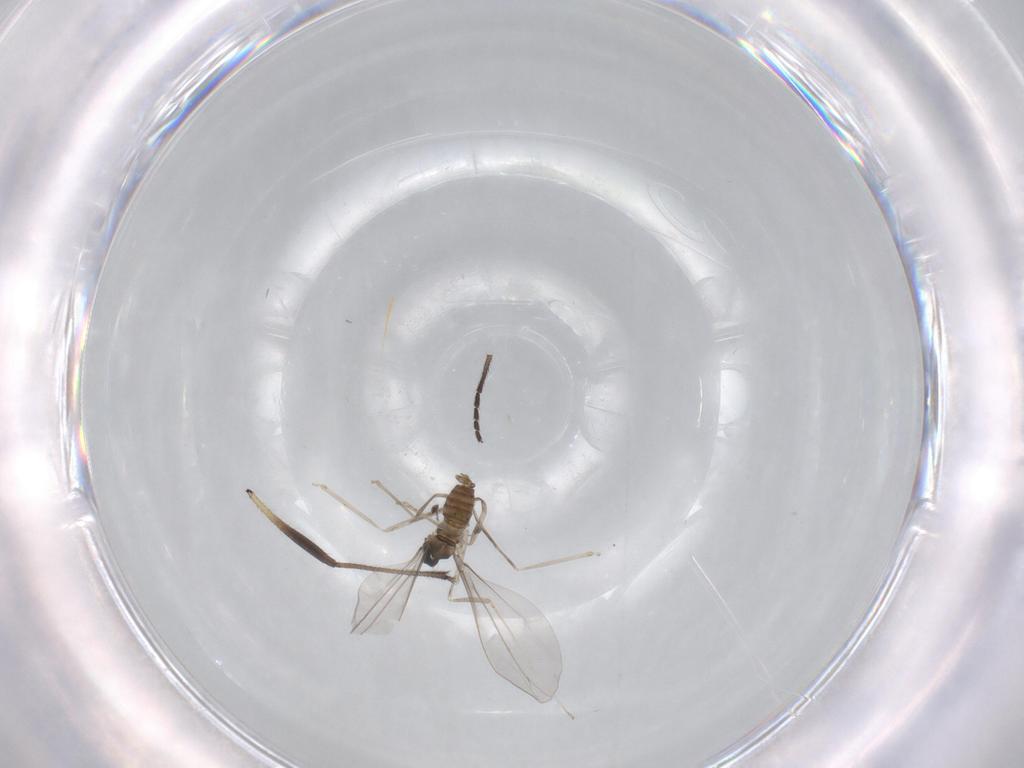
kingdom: Animalia
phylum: Arthropoda
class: Insecta
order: Diptera
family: Cecidomyiidae
